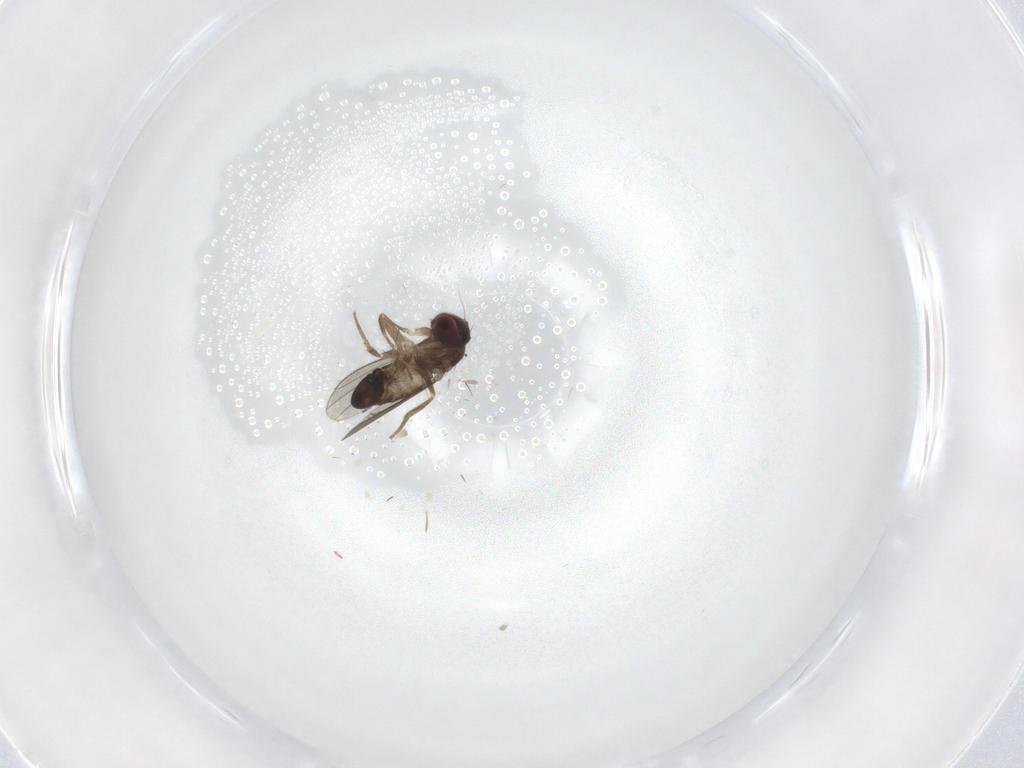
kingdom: Animalia
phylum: Arthropoda
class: Insecta
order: Diptera
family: Dolichopodidae
